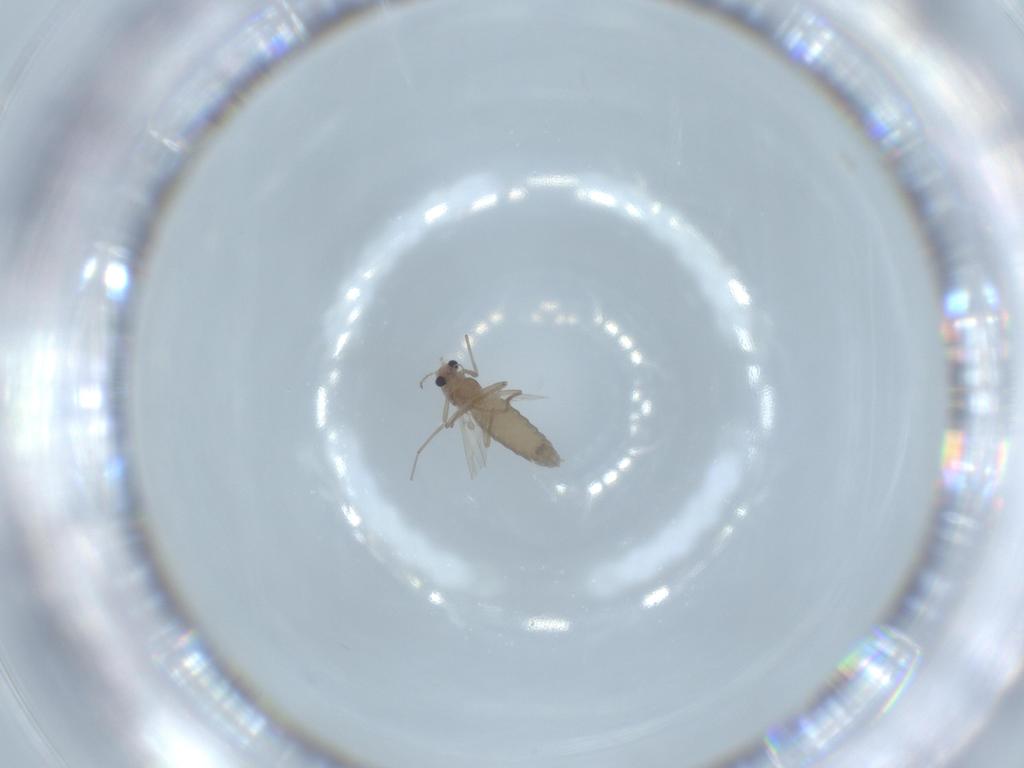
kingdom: Animalia
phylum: Arthropoda
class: Insecta
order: Diptera
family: Chironomidae
